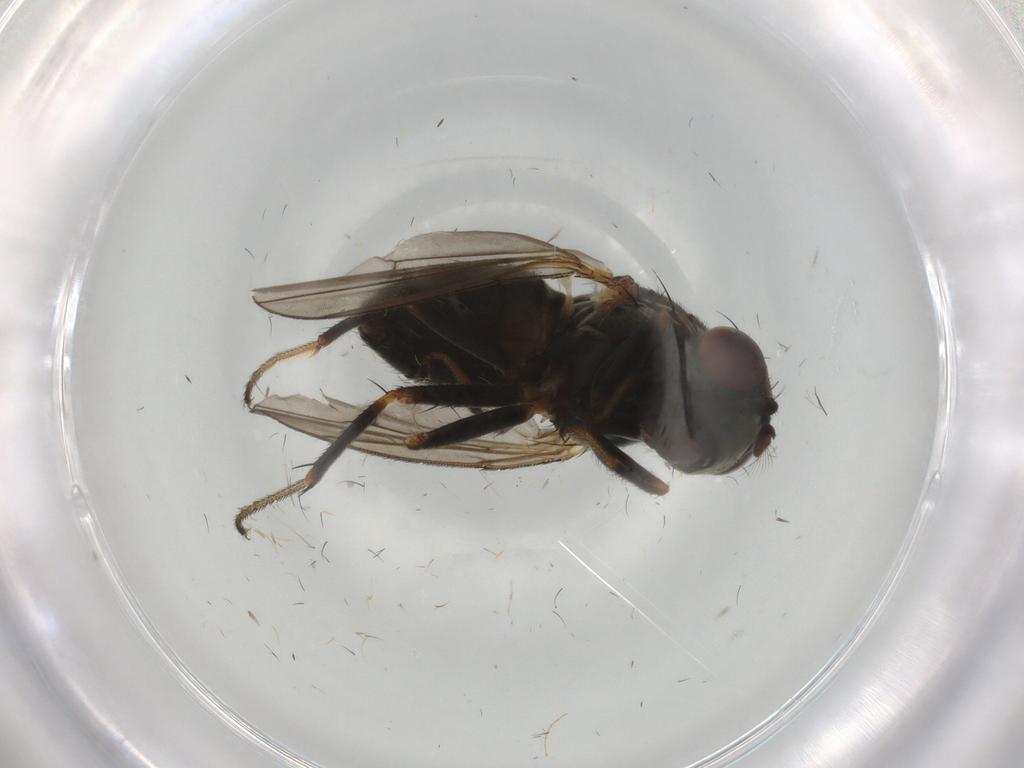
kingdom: Animalia
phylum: Arthropoda
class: Insecta
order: Diptera
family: Ephydridae
